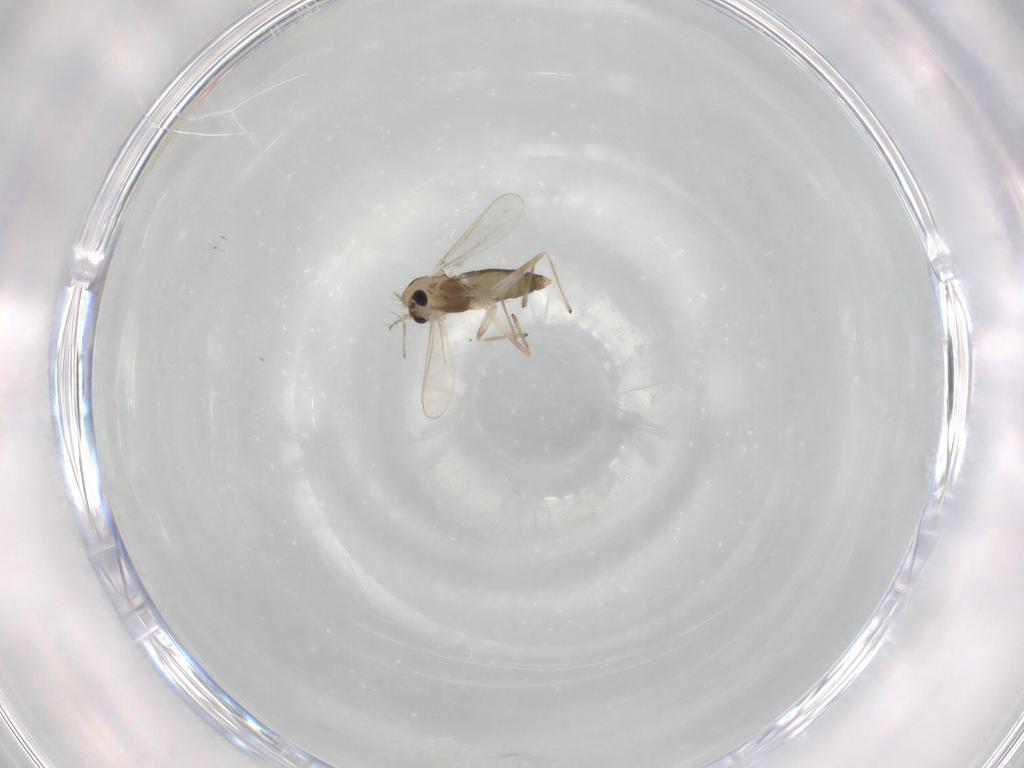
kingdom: Animalia
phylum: Arthropoda
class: Insecta
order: Diptera
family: Chironomidae
